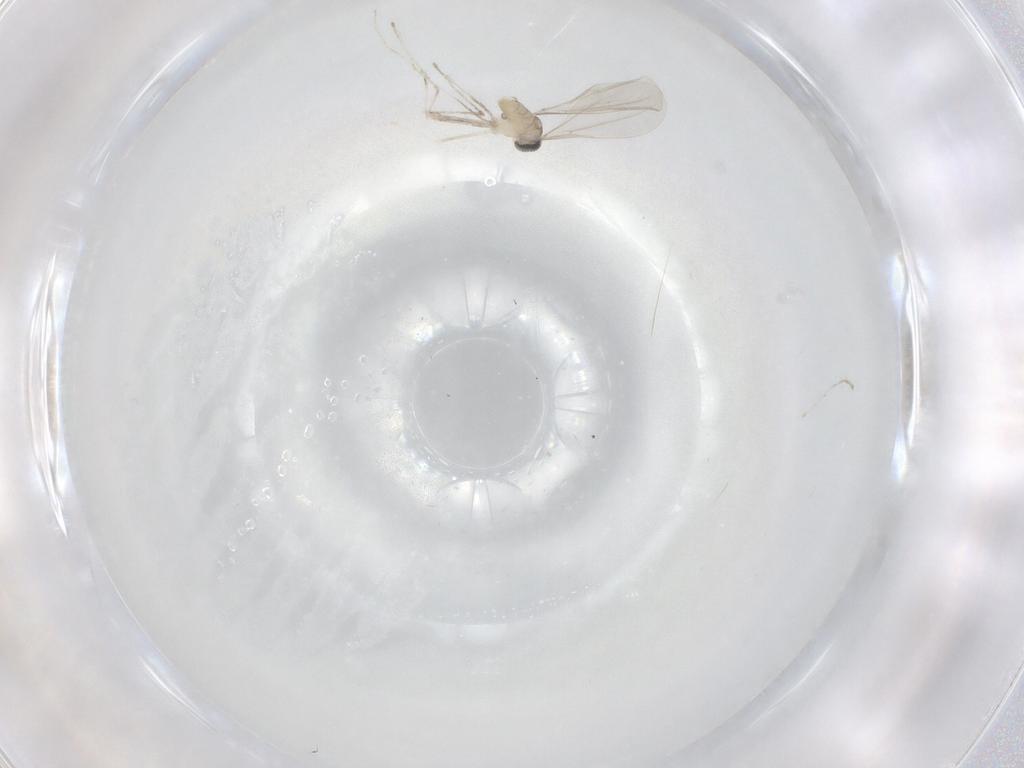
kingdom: Animalia
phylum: Arthropoda
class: Insecta
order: Diptera
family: Cecidomyiidae
